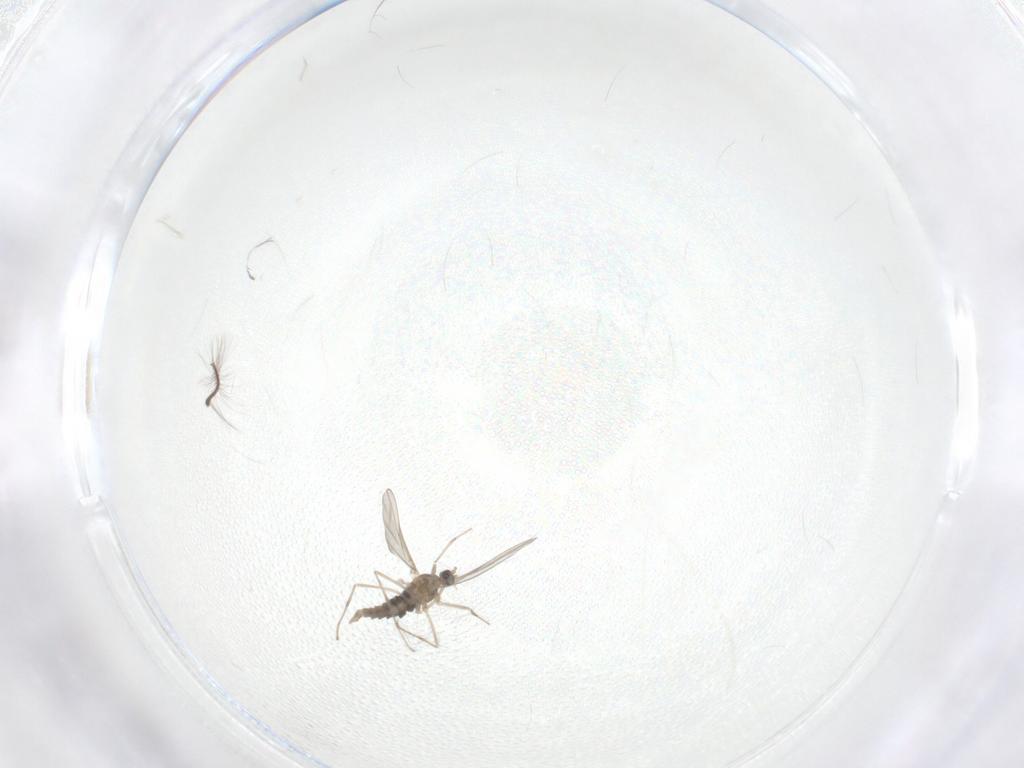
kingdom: Animalia
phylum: Arthropoda
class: Insecta
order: Diptera
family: Cecidomyiidae
